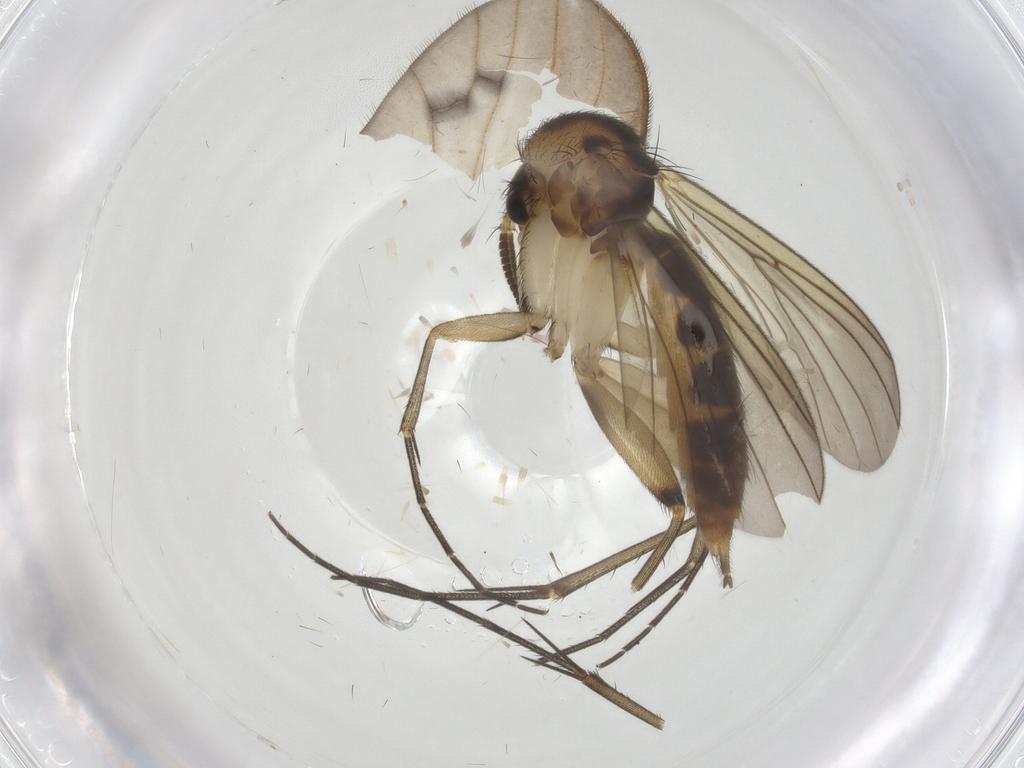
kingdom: Animalia
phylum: Arthropoda
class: Insecta
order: Diptera
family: Mycetophilidae
